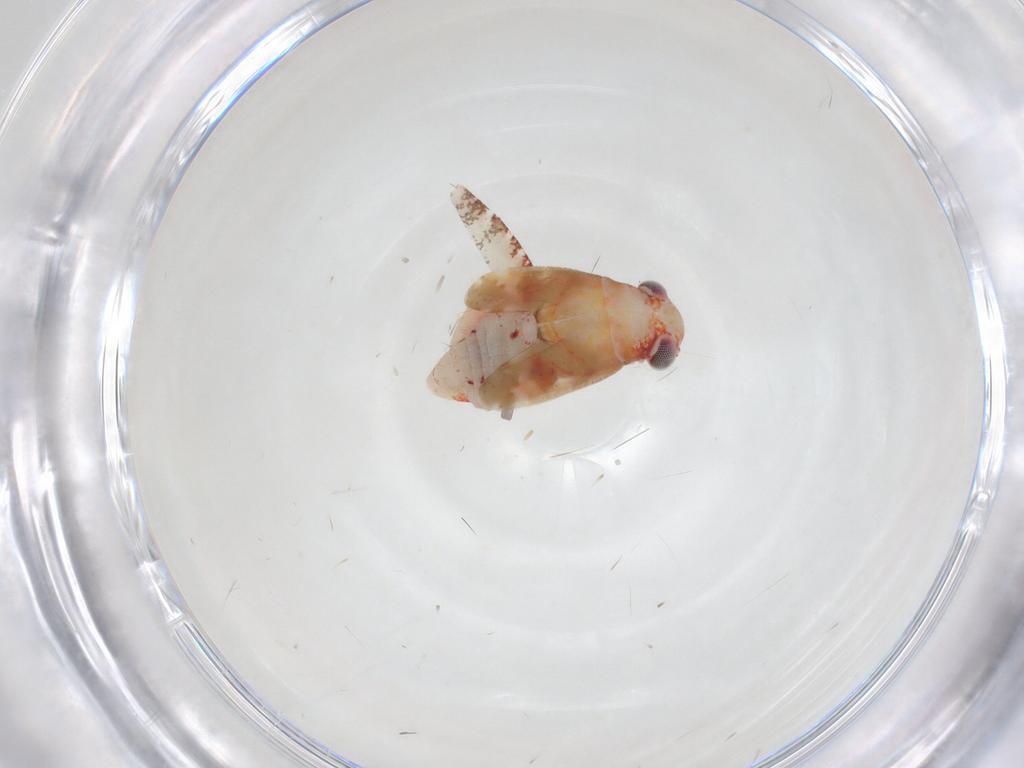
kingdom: Animalia
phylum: Arthropoda
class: Insecta
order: Hemiptera
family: Miridae
